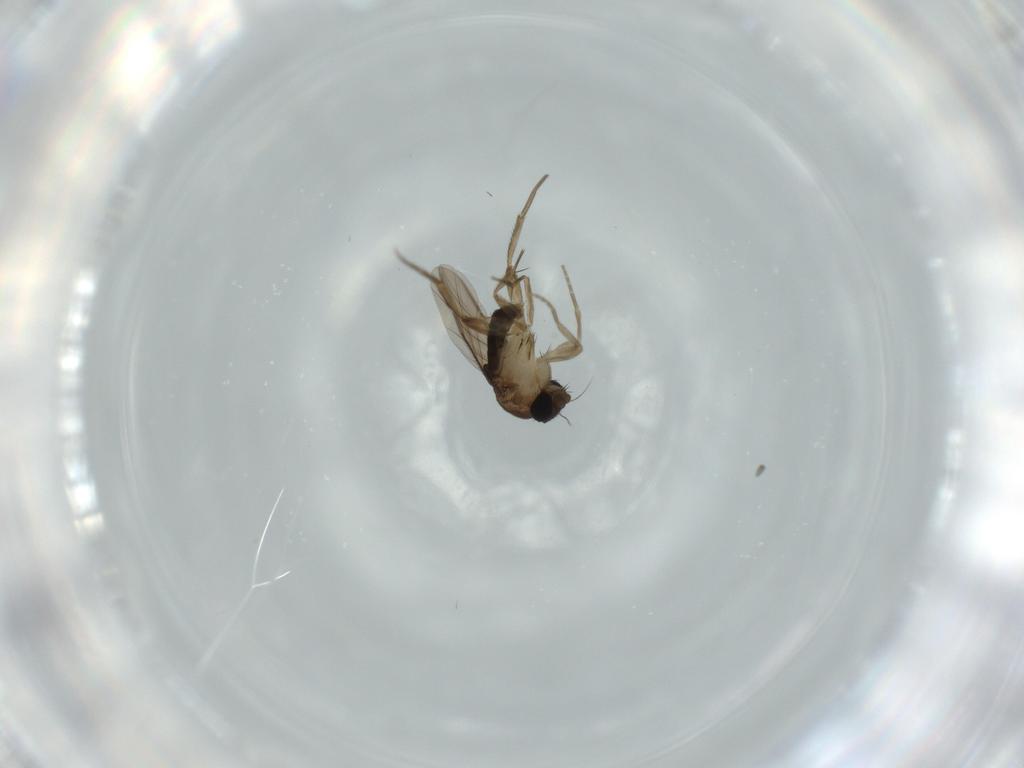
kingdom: Animalia
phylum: Arthropoda
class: Insecta
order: Diptera
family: Phoridae
